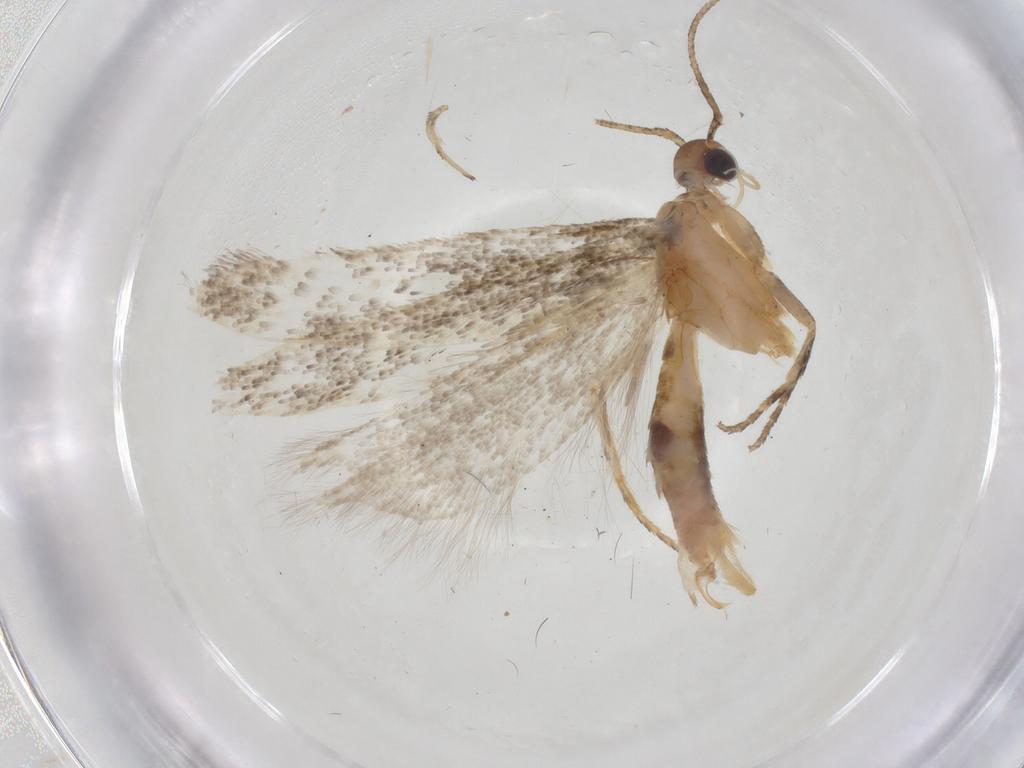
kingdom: Animalia
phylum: Arthropoda
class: Insecta
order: Lepidoptera
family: Gelechiidae
